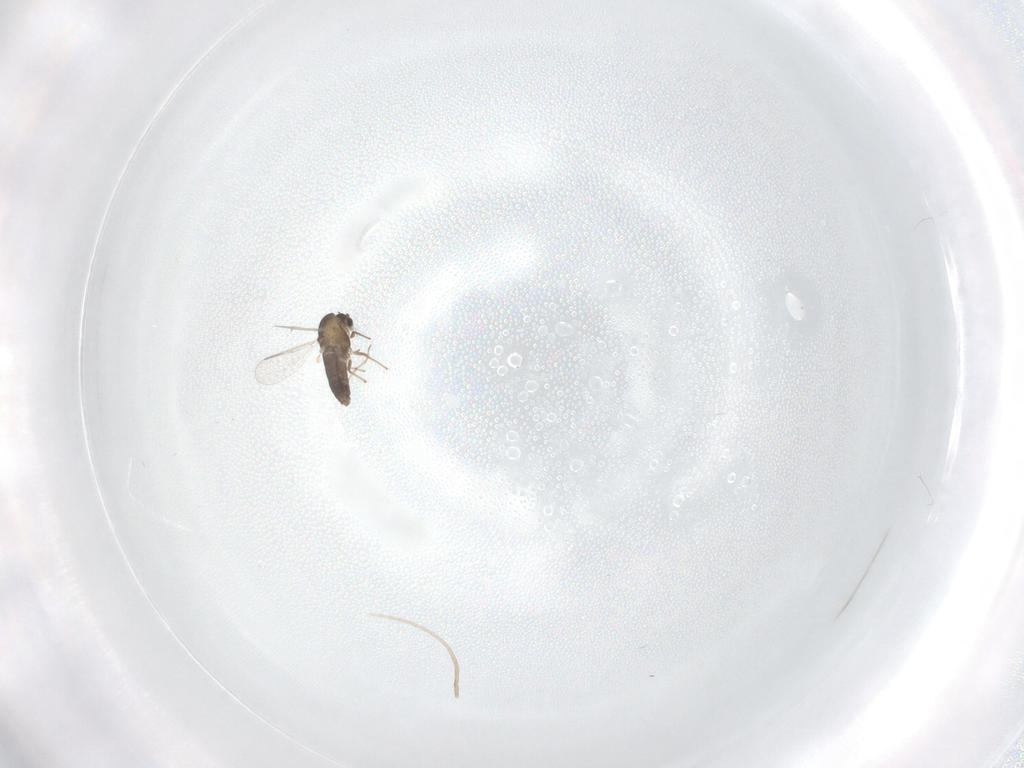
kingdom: Animalia
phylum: Arthropoda
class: Insecta
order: Diptera
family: Chironomidae
